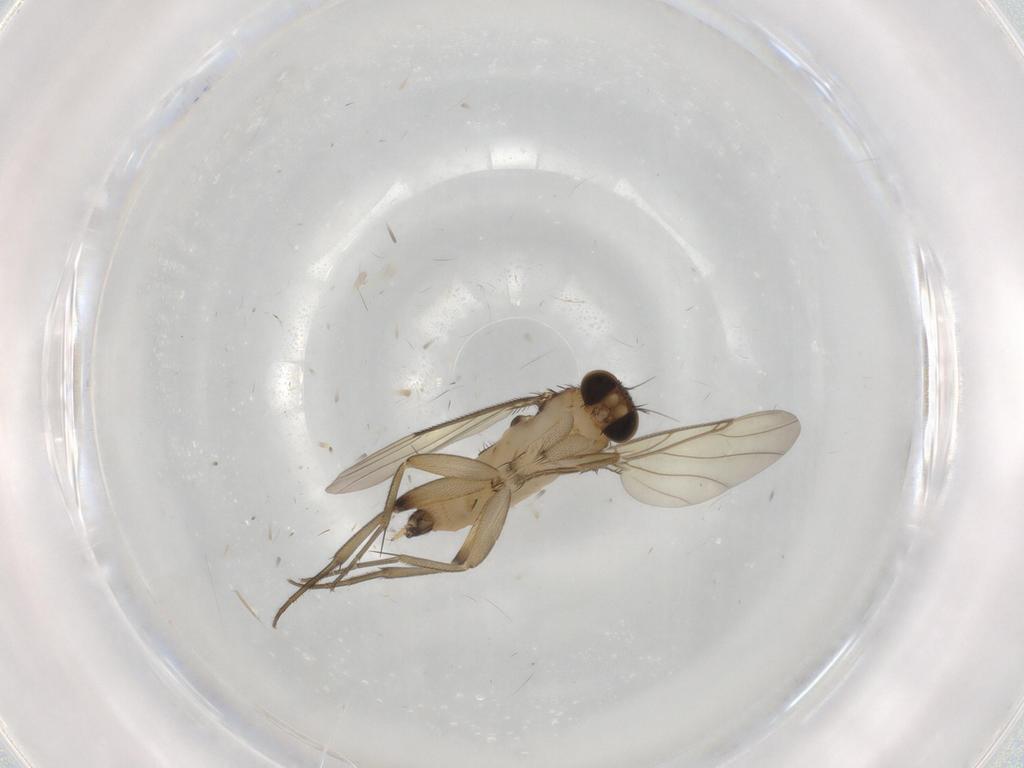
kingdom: Animalia
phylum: Arthropoda
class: Insecta
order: Diptera
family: Phoridae
